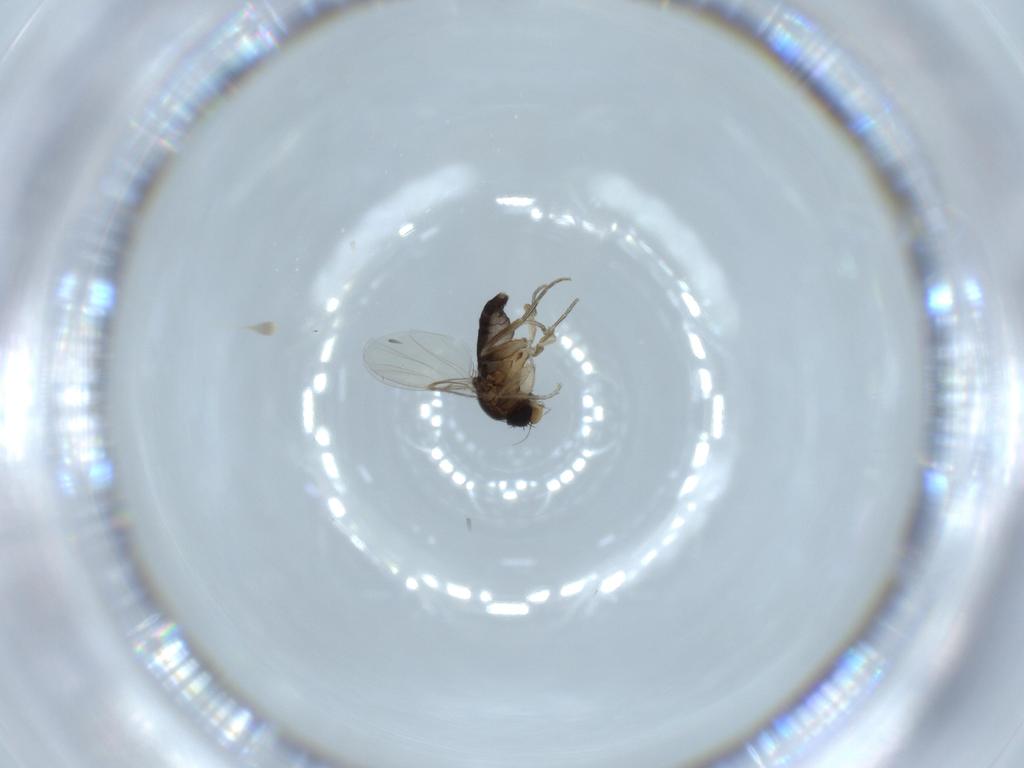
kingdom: Animalia
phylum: Arthropoda
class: Insecta
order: Diptera
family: Phoridae
